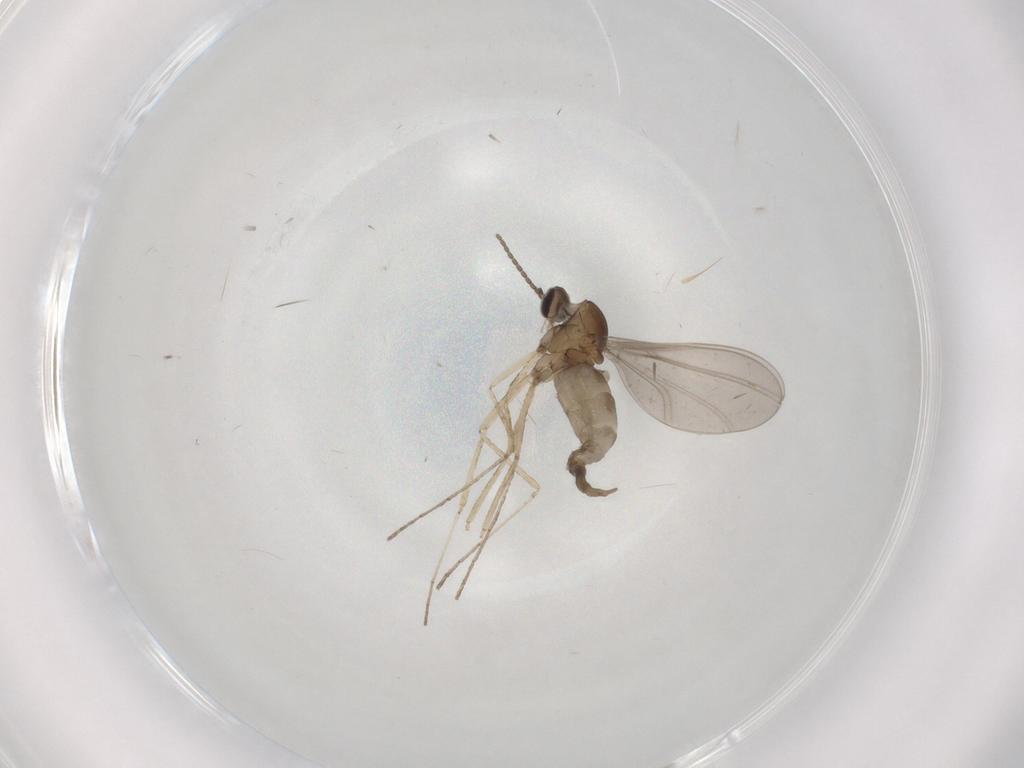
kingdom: Animalia
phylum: Arthropoda
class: Insecta
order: Diptera
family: Cecidomyiidae
